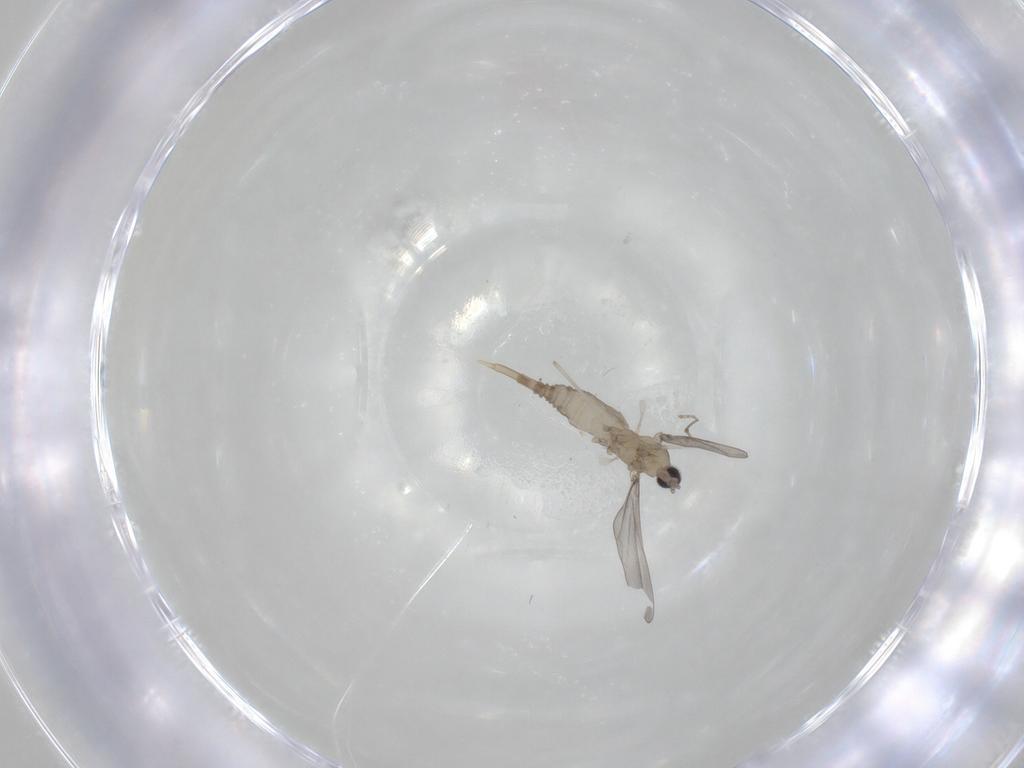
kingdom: Animalia
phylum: Arthropoda
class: Insecta
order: Diptera
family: Cecidomyiidae
